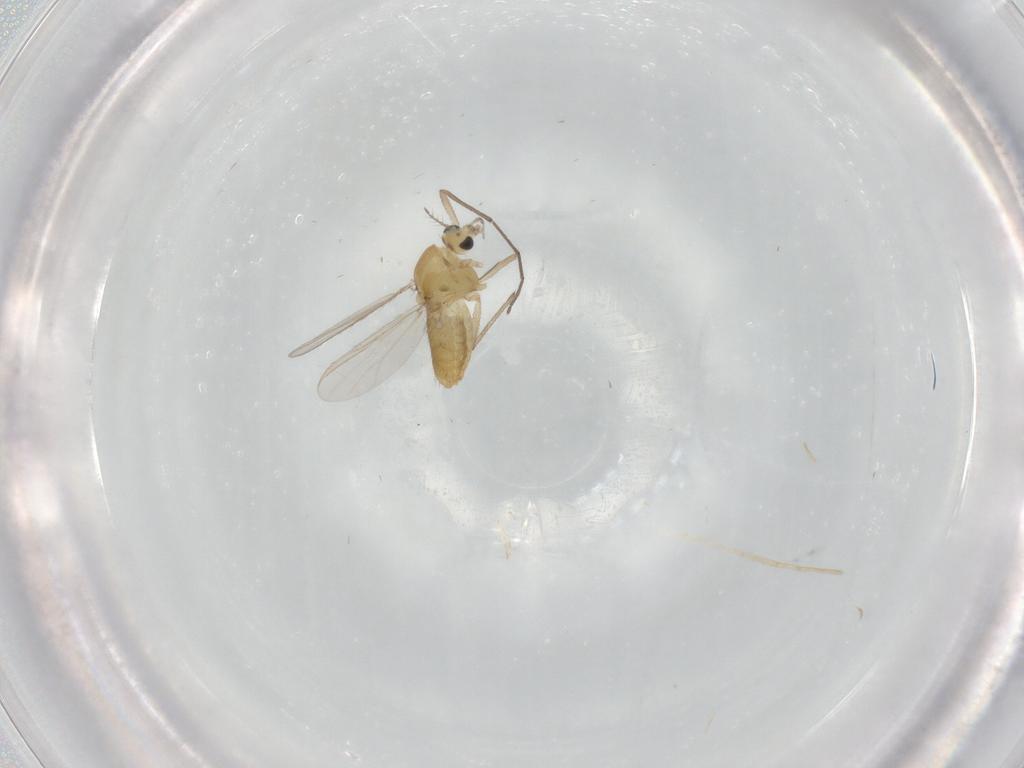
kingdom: Animalia
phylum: Arthropoda
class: Insecta
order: Diptera
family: Chironomidae
